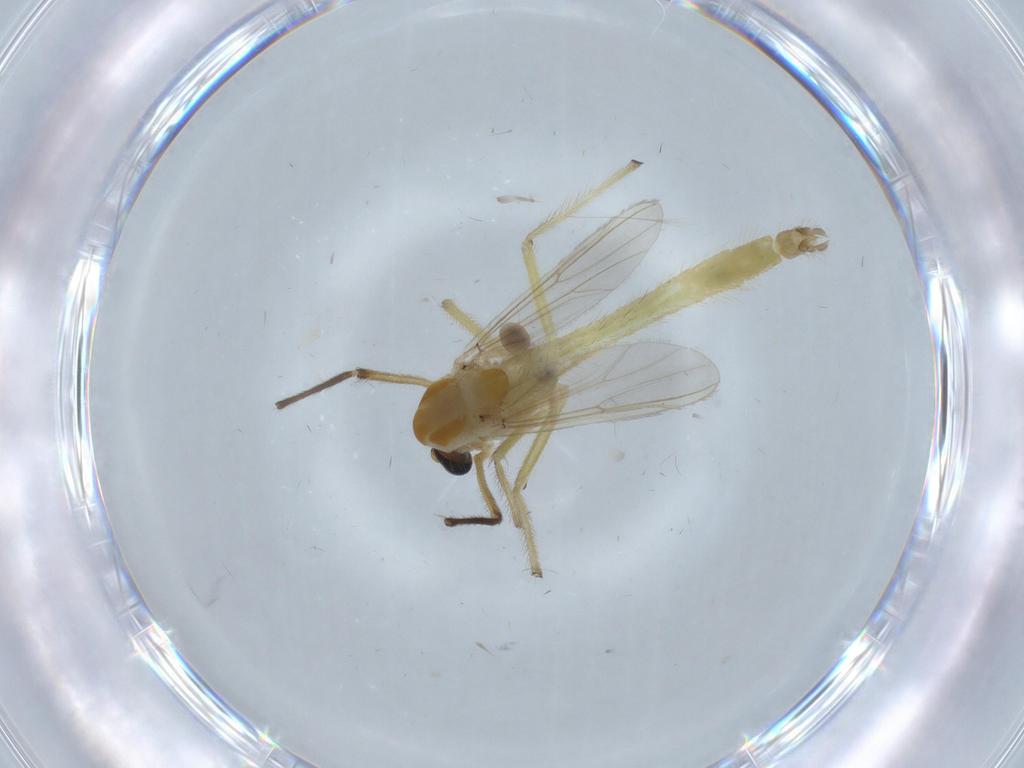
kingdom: Animalia
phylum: Arthropoda
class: Insecta
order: Diptera
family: Chironomidae
